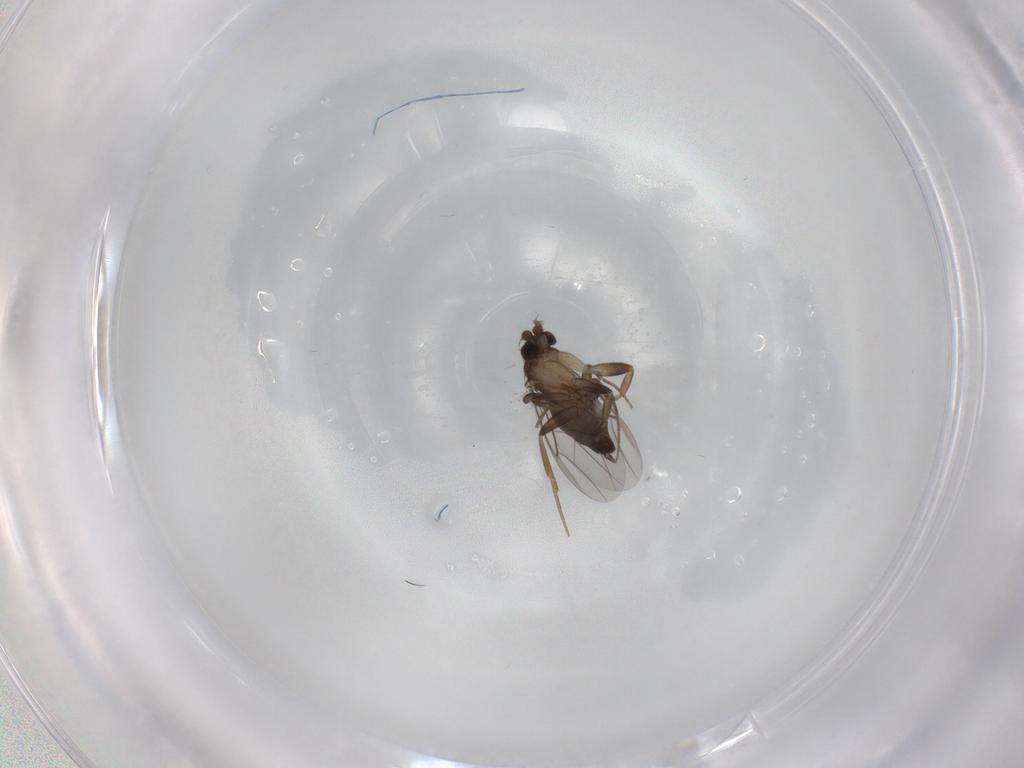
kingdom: Animalia
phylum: Arthropoda
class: Insecta
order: Diptera
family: Phoridae
